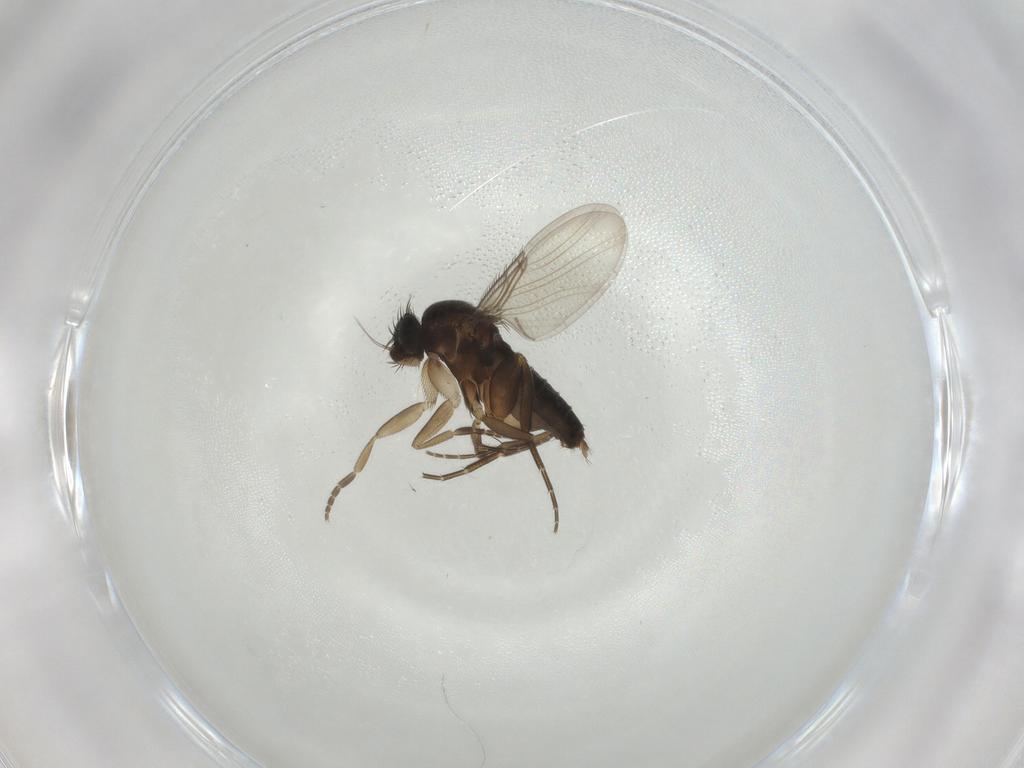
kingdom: Animalia
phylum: Arthropoda
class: Insecta
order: Diptera
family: Phoridae
